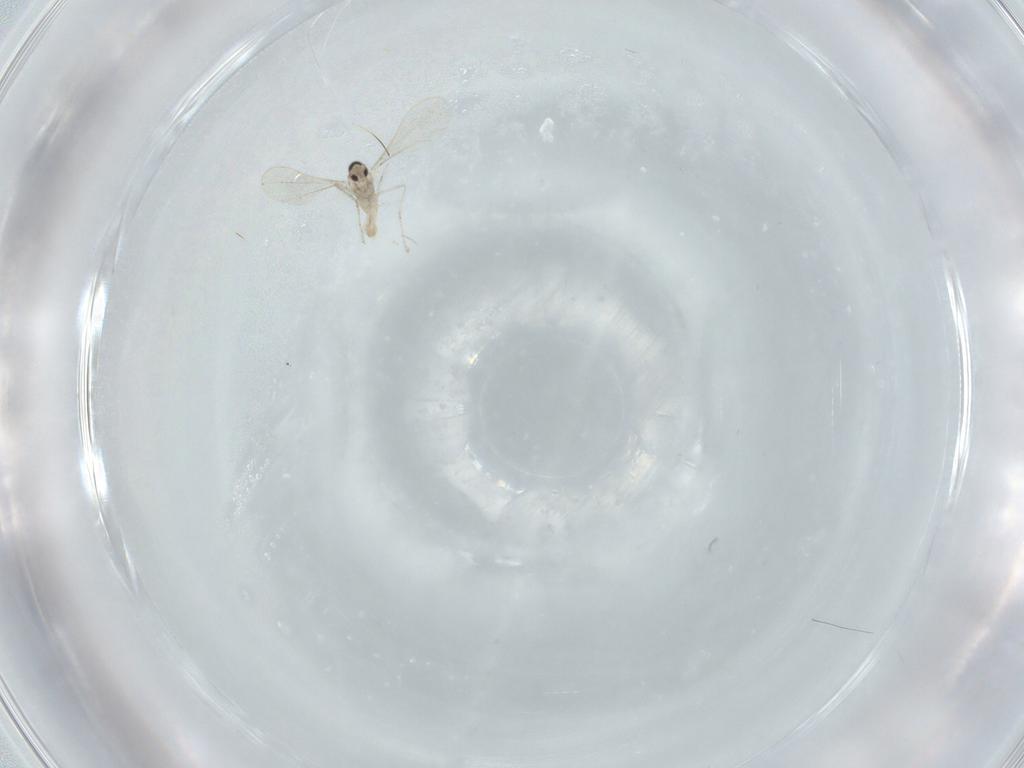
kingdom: Animalia
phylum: Arthropoda
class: Insecta
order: Diptera
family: Cecidomyiidae
